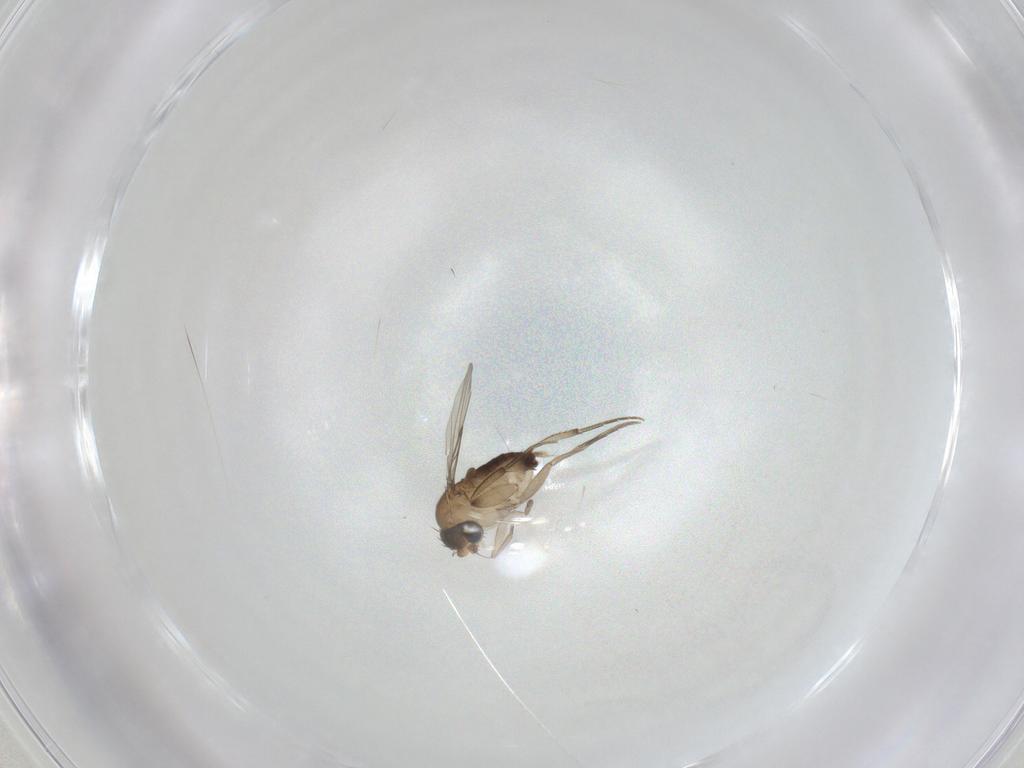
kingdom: Animalia
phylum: Arthropoda
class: Insecta
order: Diptera
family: Phoridae
